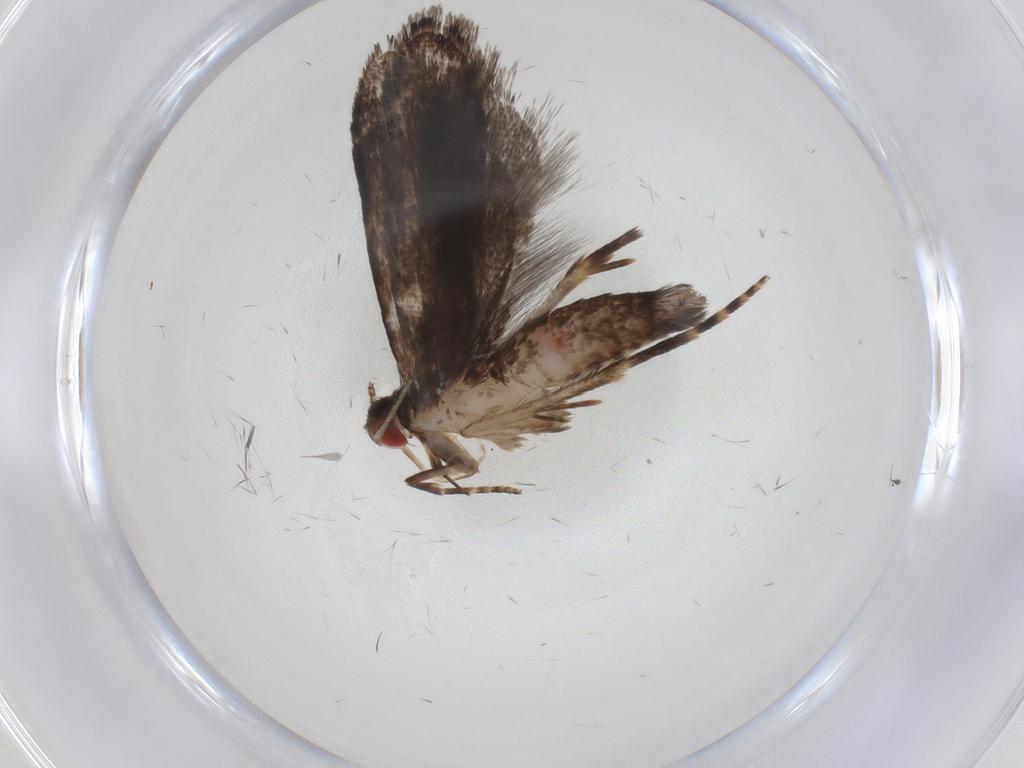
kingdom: Animalia
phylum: Arthropoda
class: Insecta
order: Lepidoptera
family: Gelechiidae
